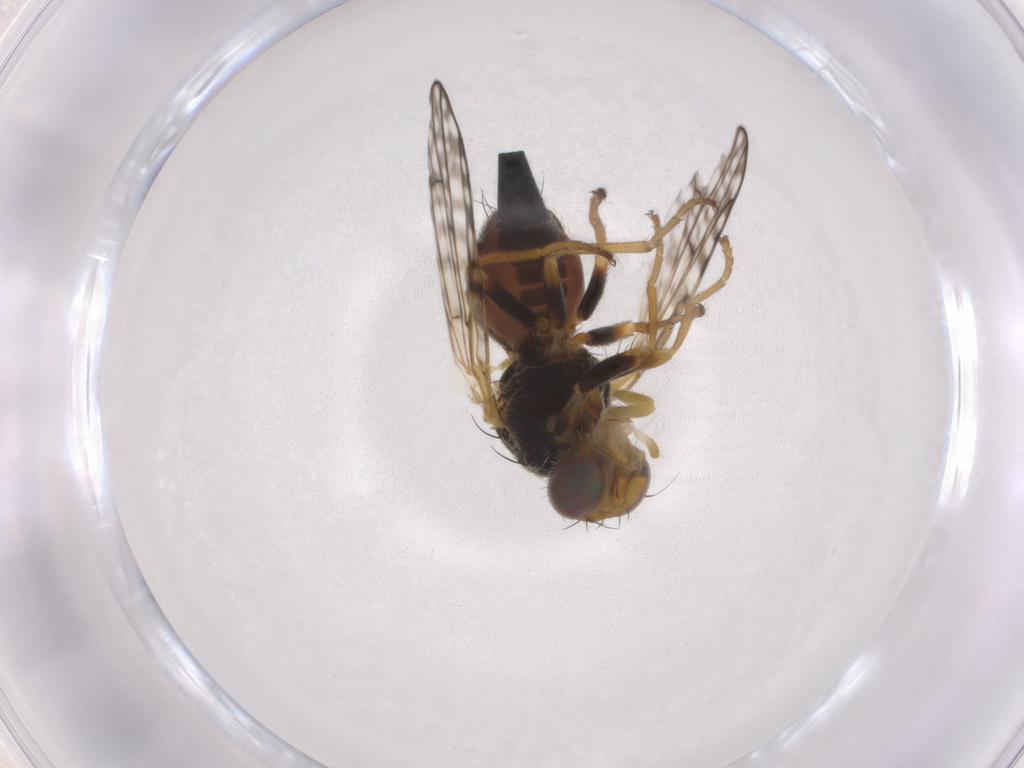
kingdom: Animalia
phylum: Arthropoda
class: Insecta
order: Diptera
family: Tephritidae
